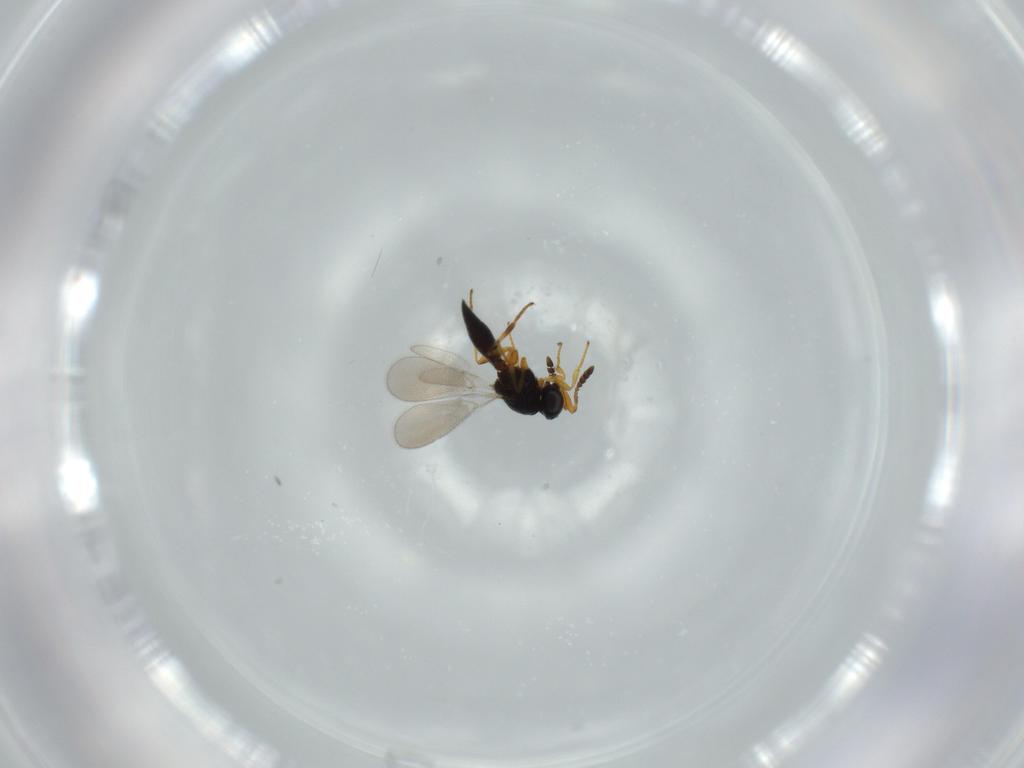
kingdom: Animalia
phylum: Arthropoda
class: Insecta
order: Hymenoptera
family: Platygastridae
